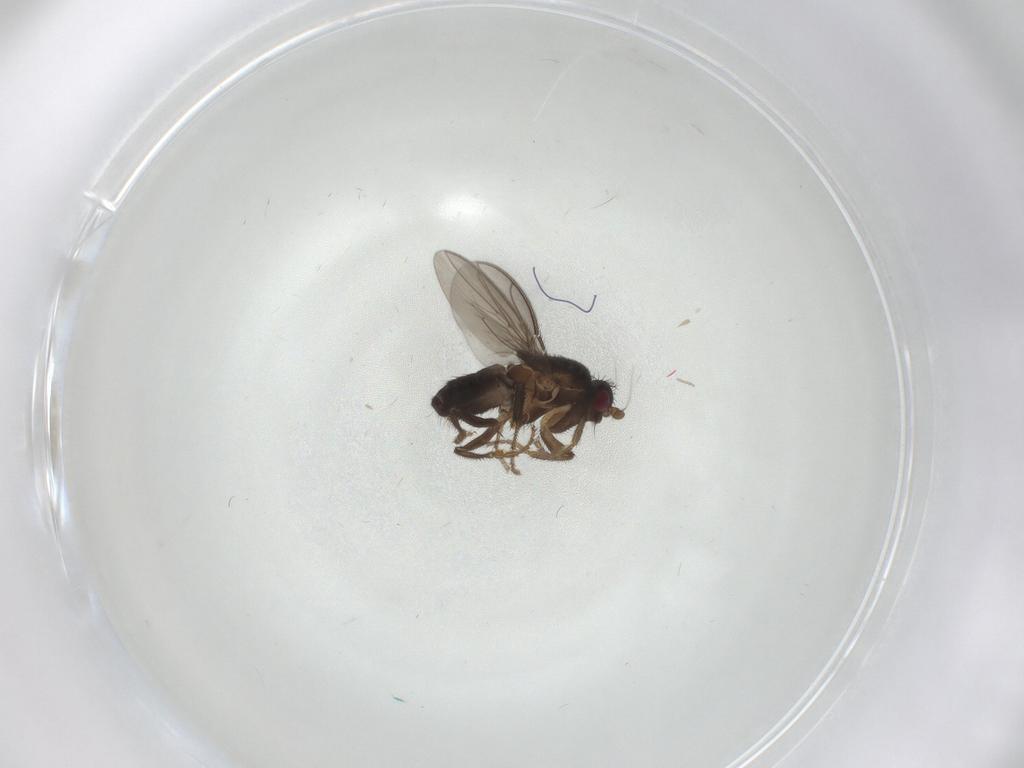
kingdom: Animalia
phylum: Arthropoda
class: Insecta
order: Diptera
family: Sphaeroceridae
